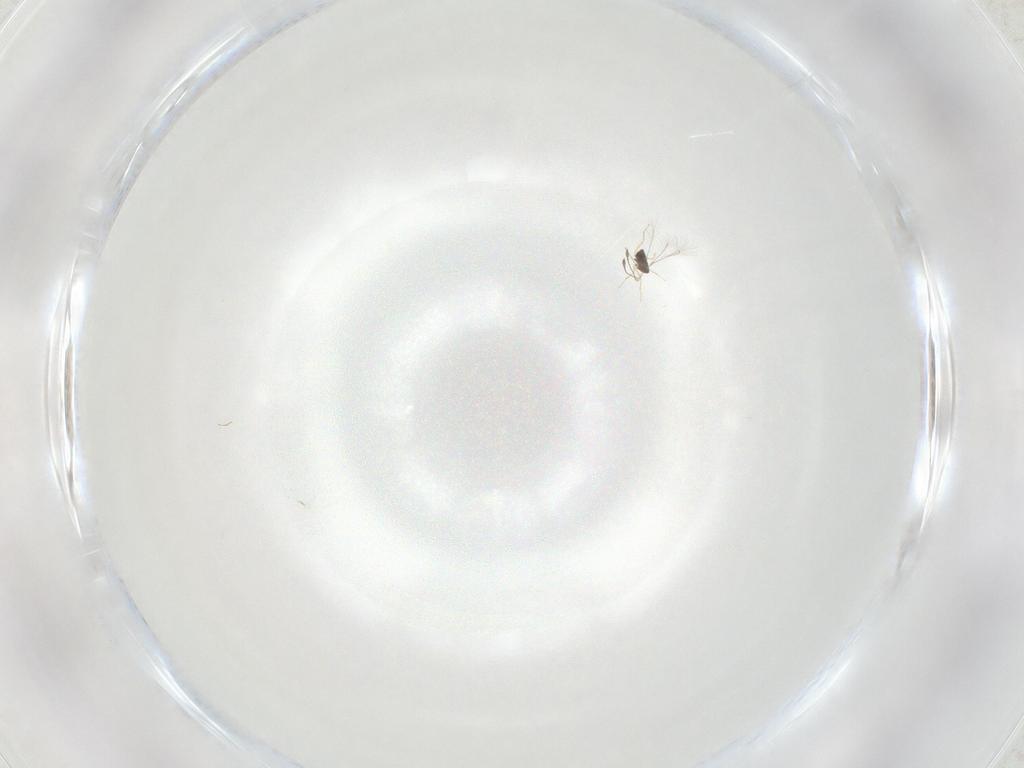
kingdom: Animalia
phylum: Arthropoda
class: Insecta
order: Diptera
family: Dolichopodidae
